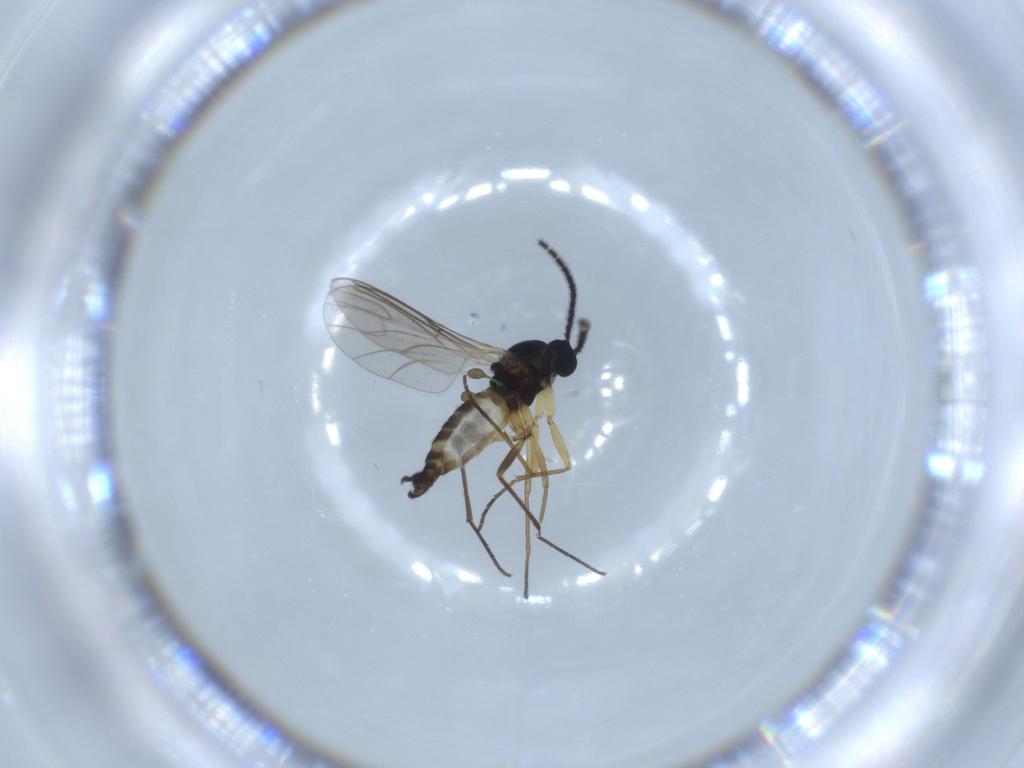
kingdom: Animalia
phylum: Arthropoda
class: Insecta
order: Diptera
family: Sciaridae
